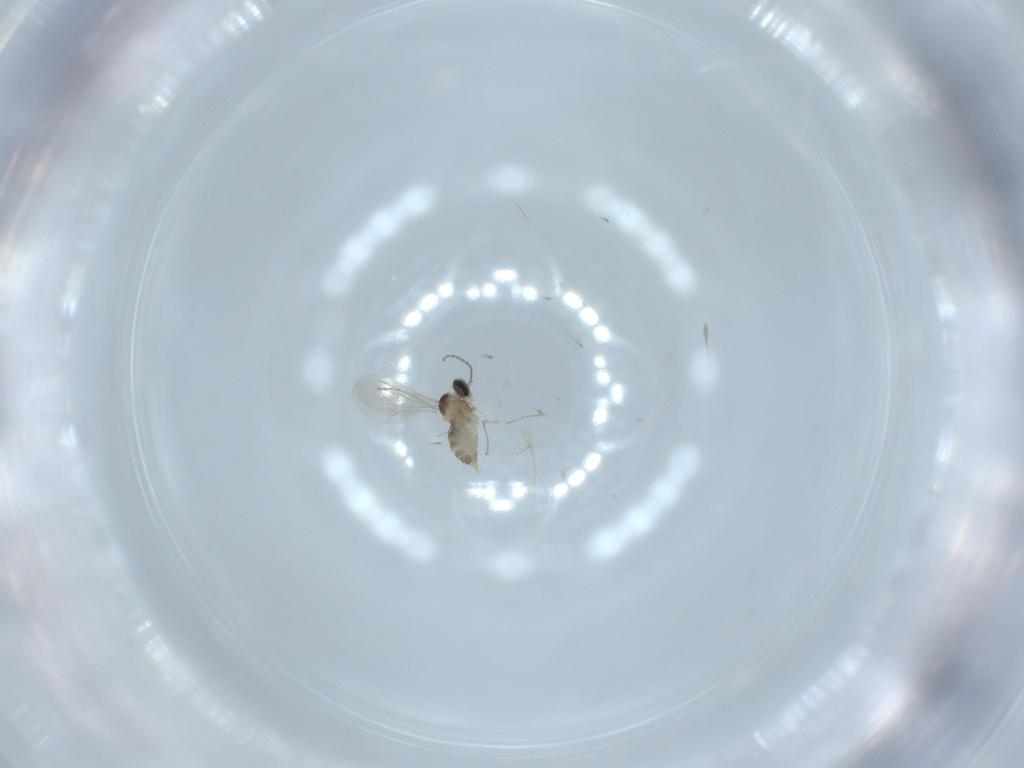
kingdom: Animalia
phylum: Arthropoda
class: Insecta
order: Diptera
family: Cecidomyiidae
